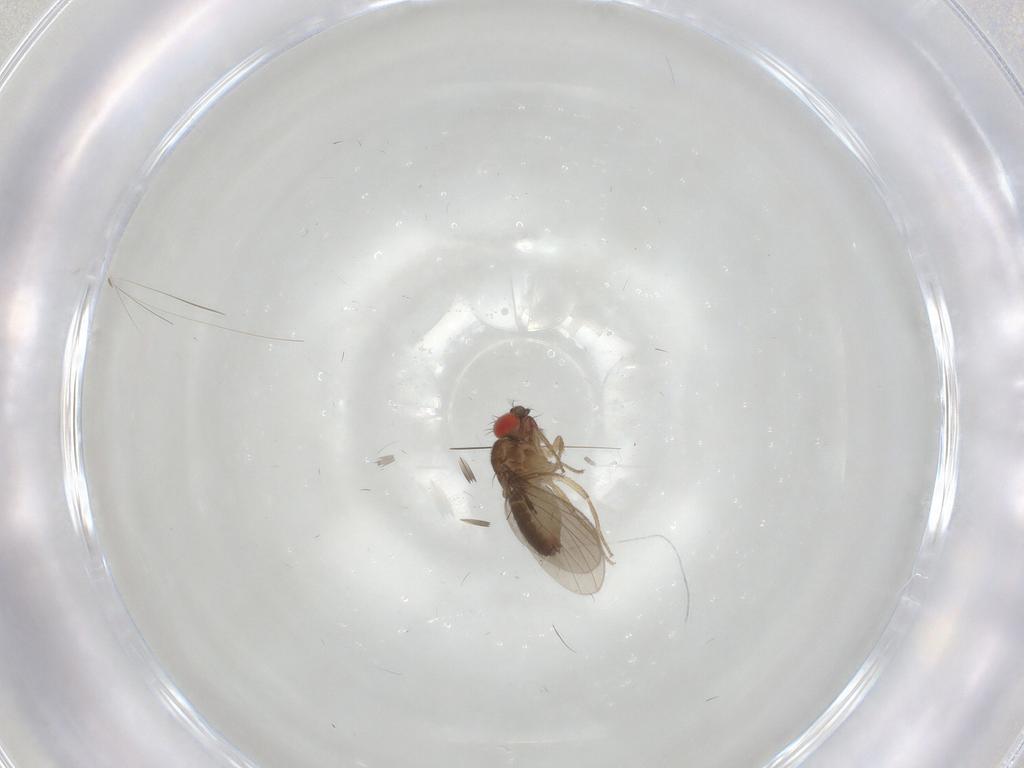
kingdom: Animalia
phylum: Arthropoda
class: Insecta
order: Diptera
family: Drosophilidae
